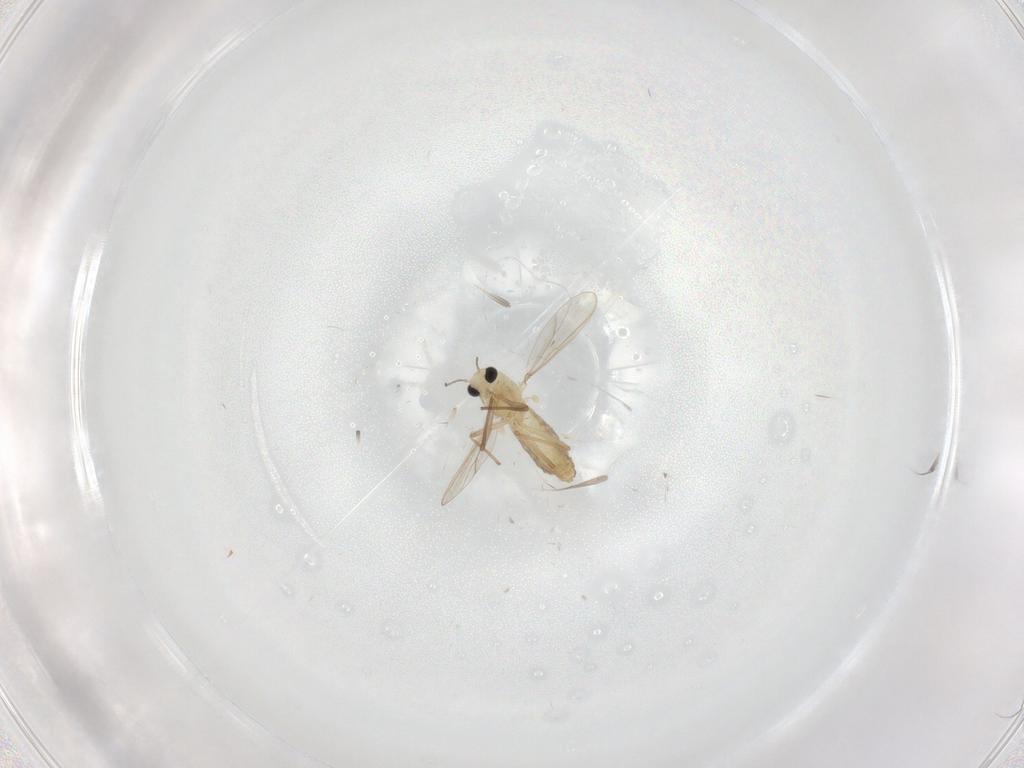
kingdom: Animalia
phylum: Arthropoda
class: Insecta
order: Diptera
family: Chironomidae
